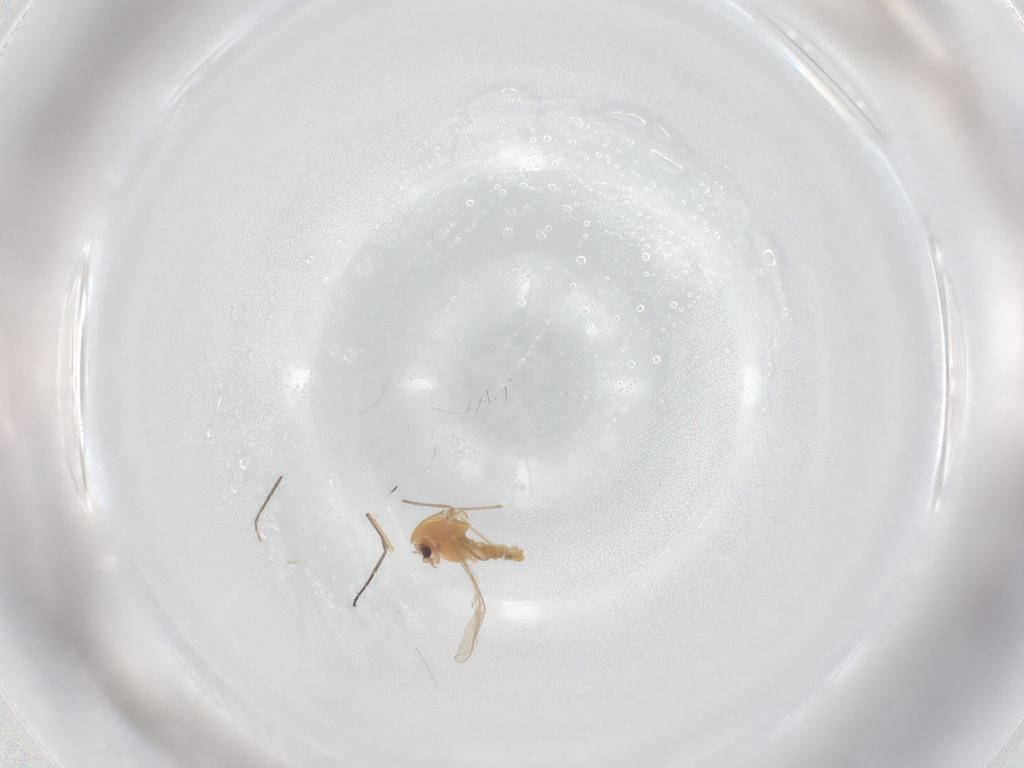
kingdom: Animalia
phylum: Arthropoda
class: Insecta
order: Diptera
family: Chironomidae
